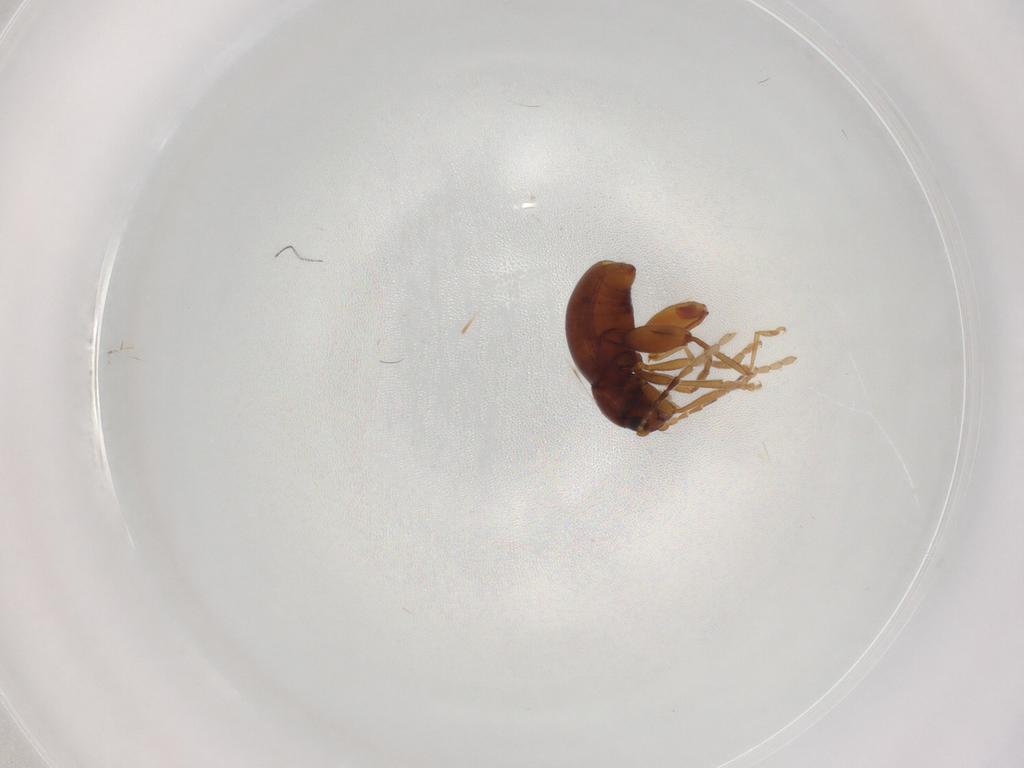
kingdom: Animalia
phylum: Arthropoda
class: Insecta
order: Coleoptera
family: Chrysomelidae
